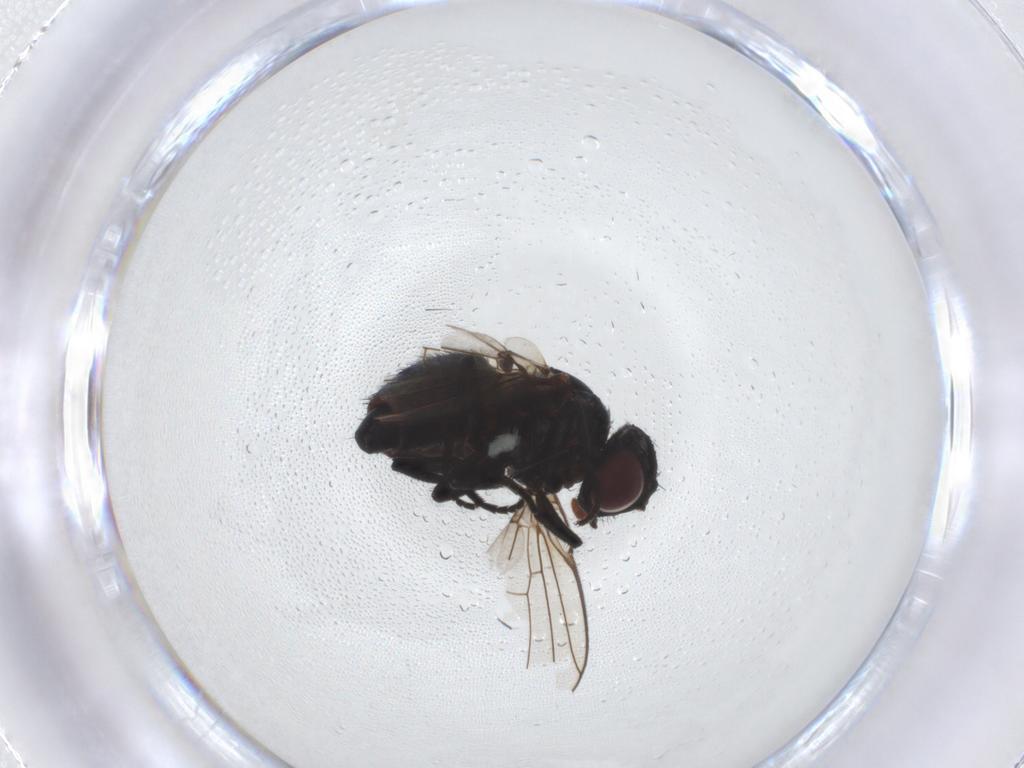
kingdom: Animalia
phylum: Arthropoda
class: Insecta
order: Diptera
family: Agromyzidae
